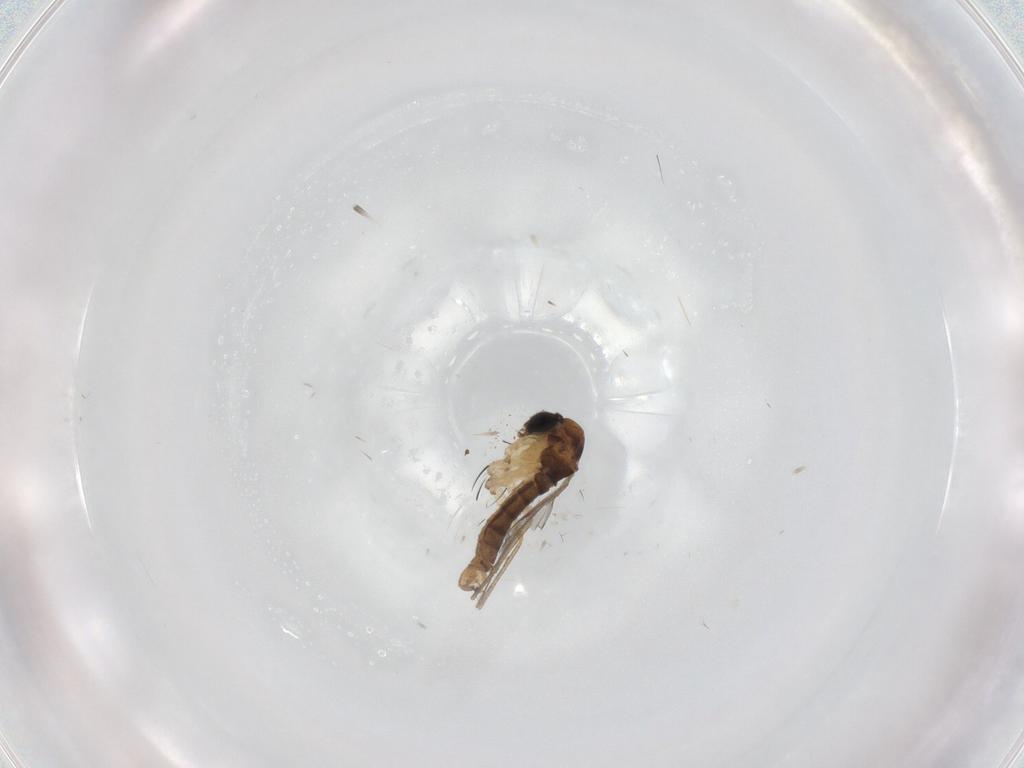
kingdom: Animalia
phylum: Arthropoda
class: Insecta
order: Diptera
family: Sciaridae
